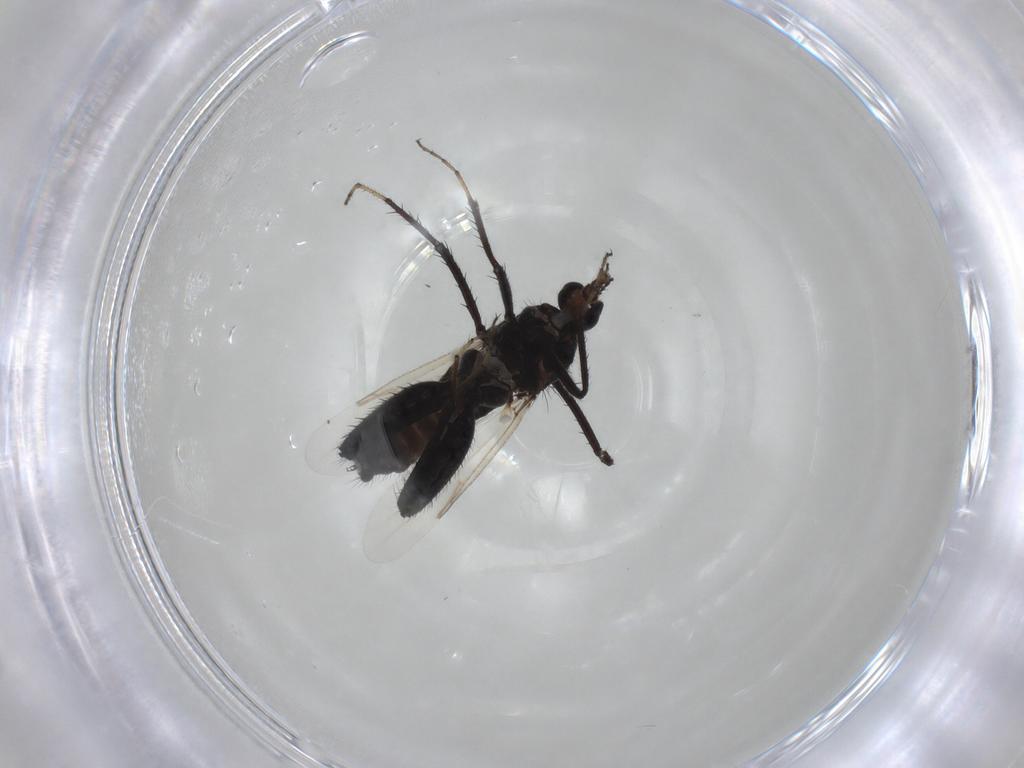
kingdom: Animalia
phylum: Arthropoda
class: Insecta
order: Diptera
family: Ceratopogonidae
